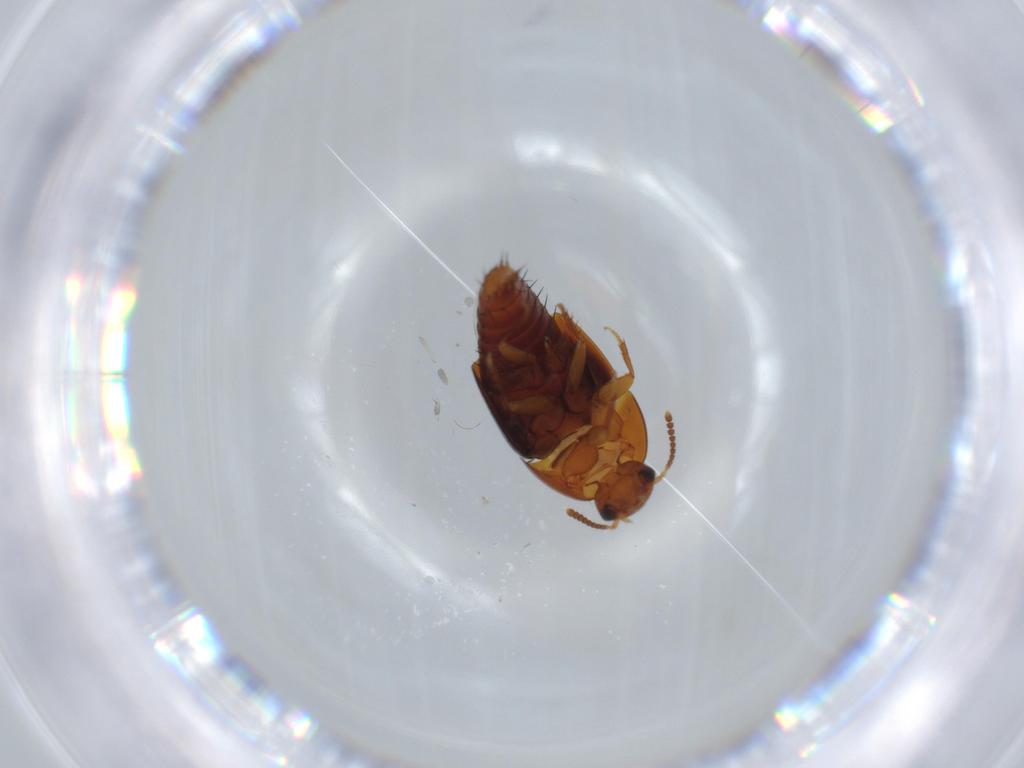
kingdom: Animalia
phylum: Arthropoda
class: Insecta
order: Coleoptera
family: Staphylinidae
